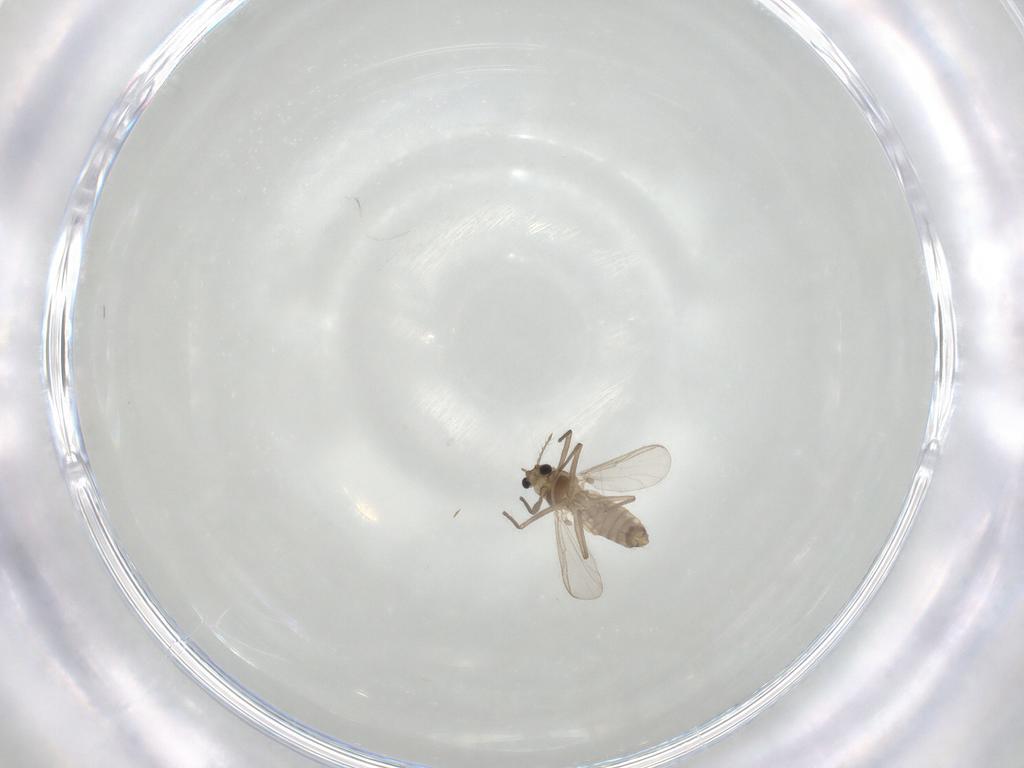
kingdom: Animalia
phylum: Arthropoda
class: Insecta
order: Diptera
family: Chironomidae
